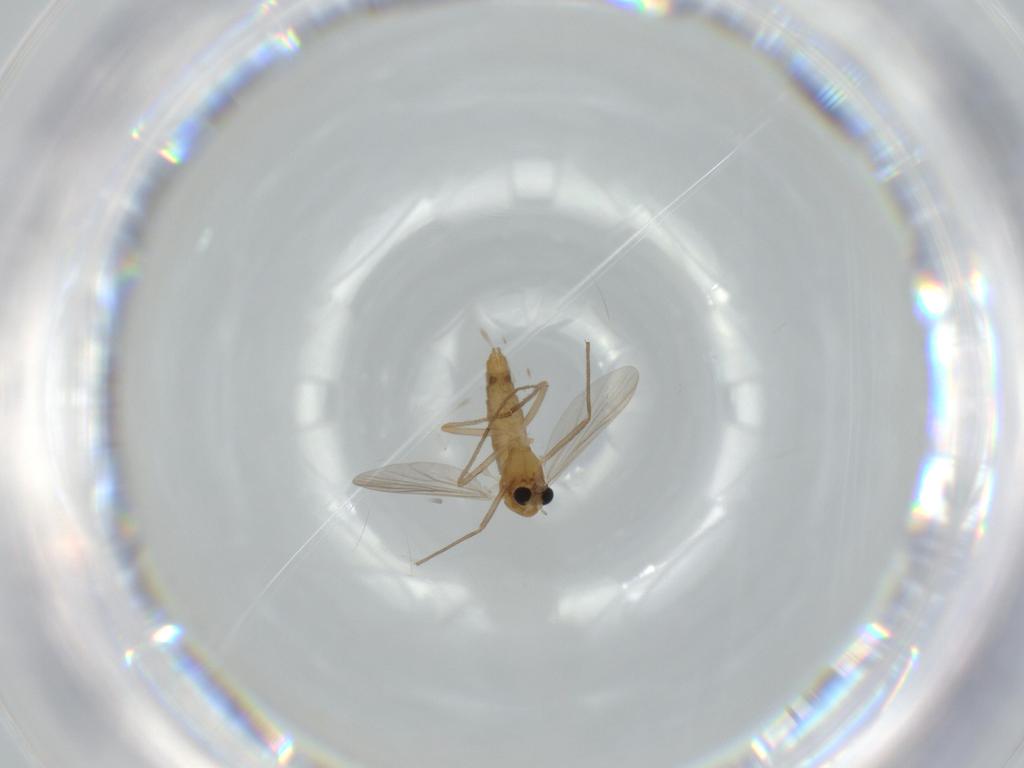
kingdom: Animalia
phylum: Arthropoda
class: Insecta
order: Diptera
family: Chironomidae
